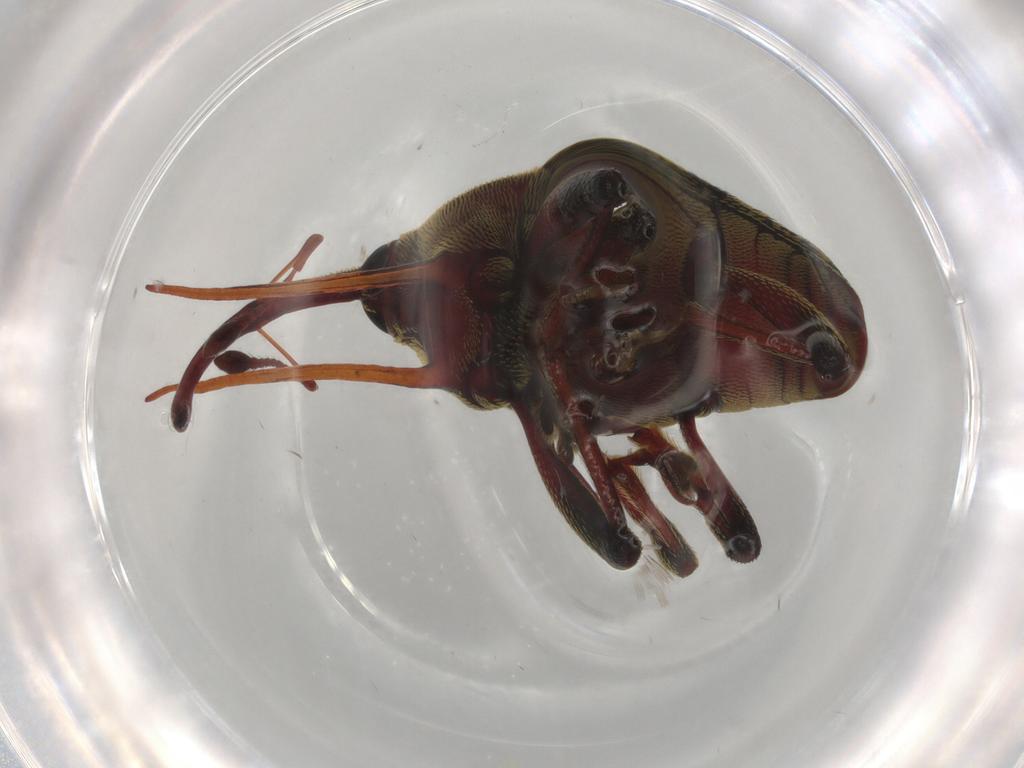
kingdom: Animalia
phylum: Arthropoda
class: Insecta
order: Coleoptera
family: Curculionidae
